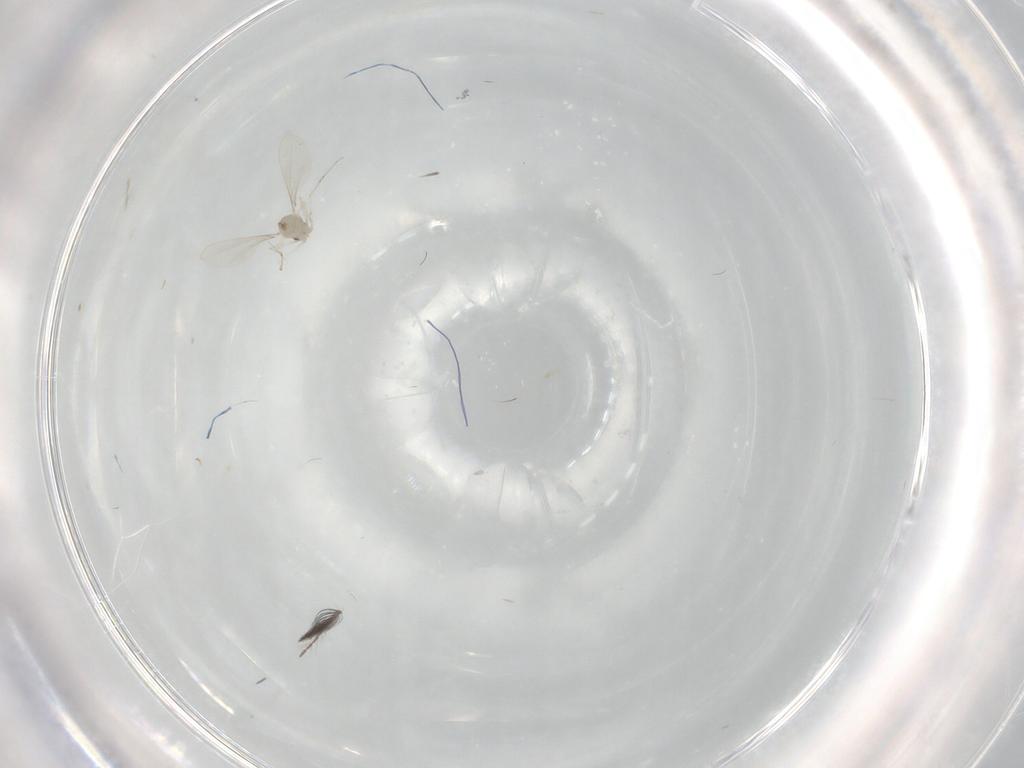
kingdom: Animalia
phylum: Arthropoda
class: Insecta
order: Diptera
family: Cecidomyiidae
